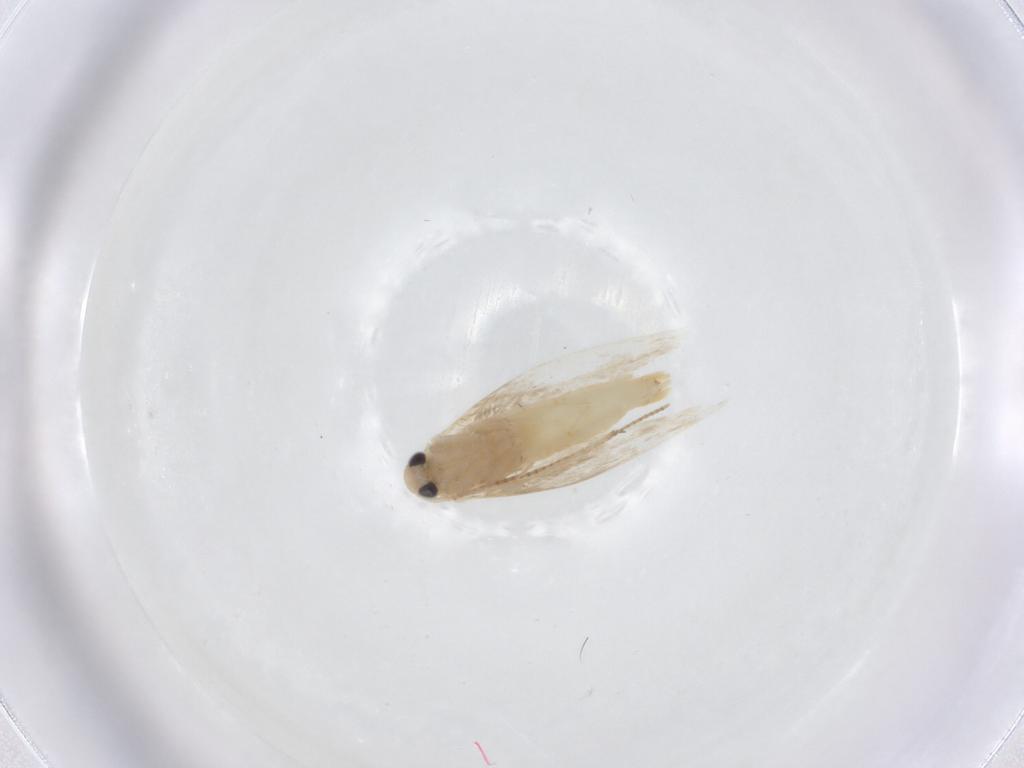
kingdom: Animalia
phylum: Arthropoda
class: Insecta
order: Lepidoptera
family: Gracillariidae
